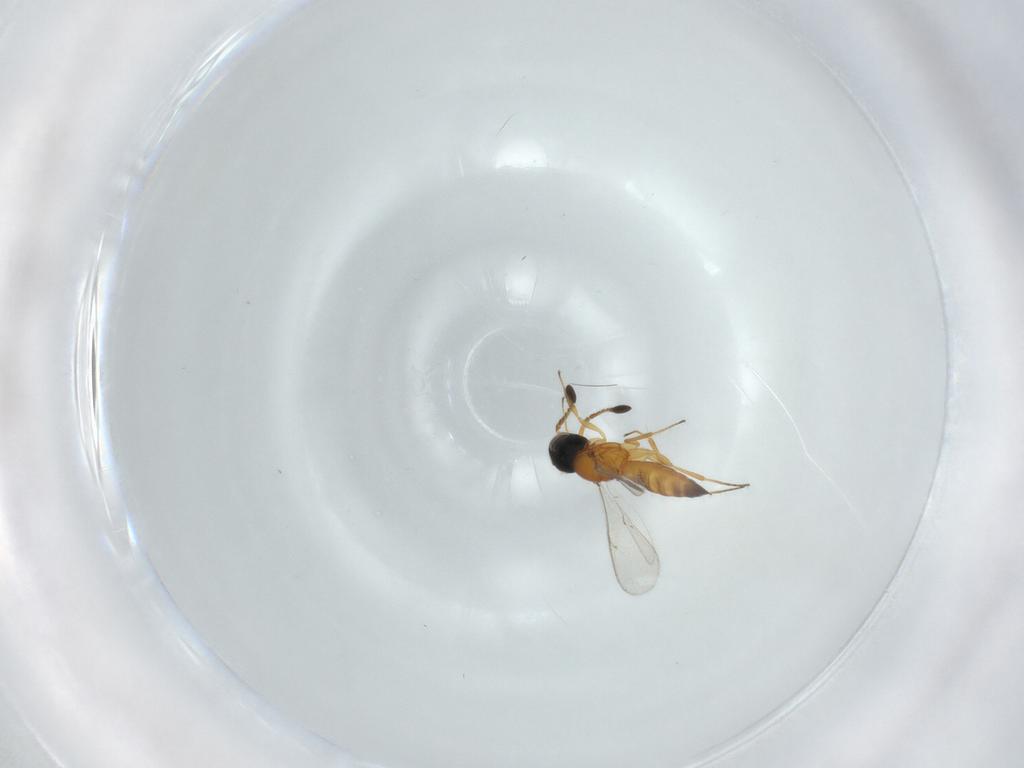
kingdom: Animalia
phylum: Arthropoda
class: Insecta
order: Hymenoptera
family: Scelionidae
